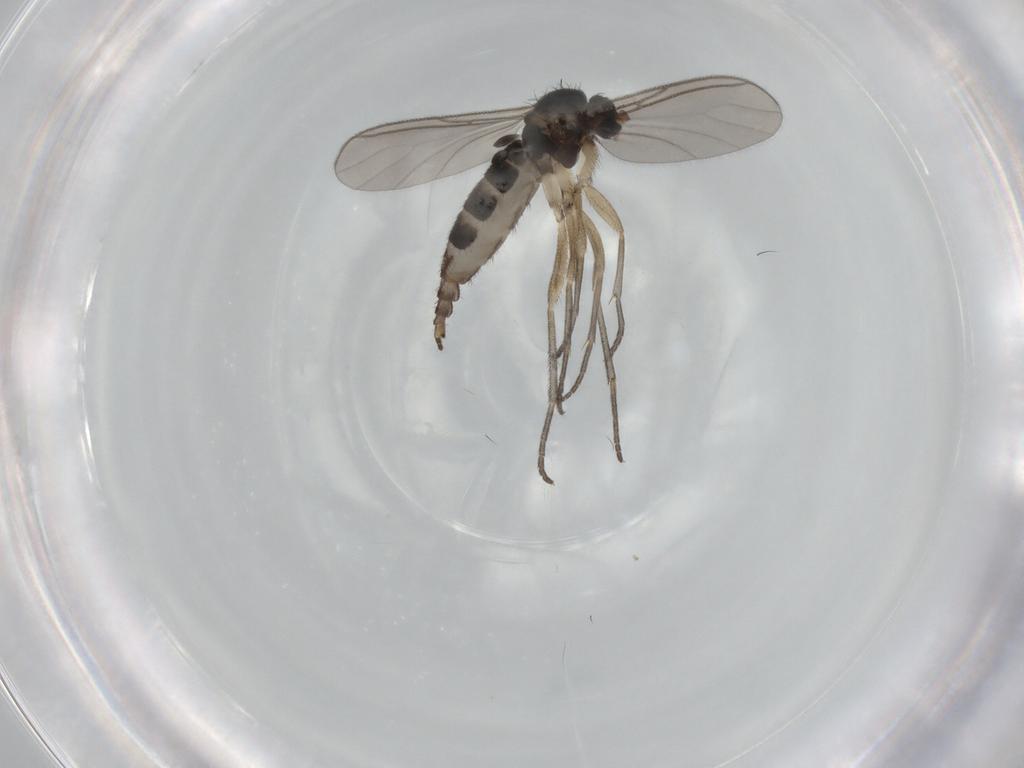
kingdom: Animalia
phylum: Arthropoda
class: Insecta
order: Diptera
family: Sciaridae
